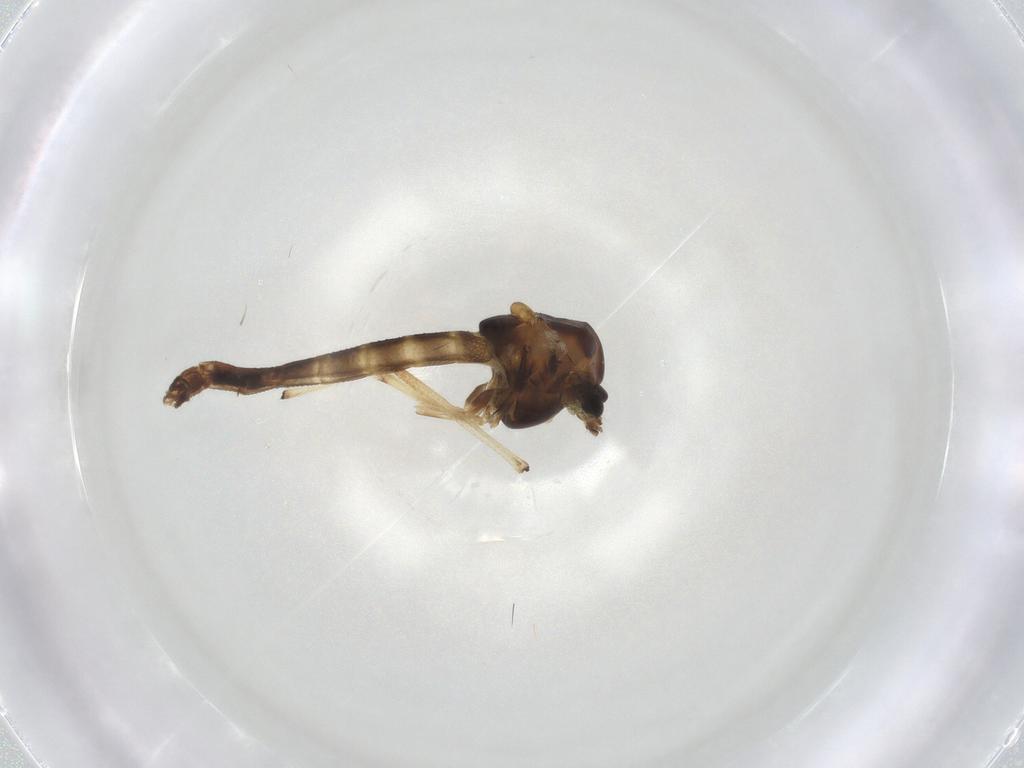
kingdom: Animalia
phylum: Arthropoda
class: Insecta
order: Diptera
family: Chironomidae
